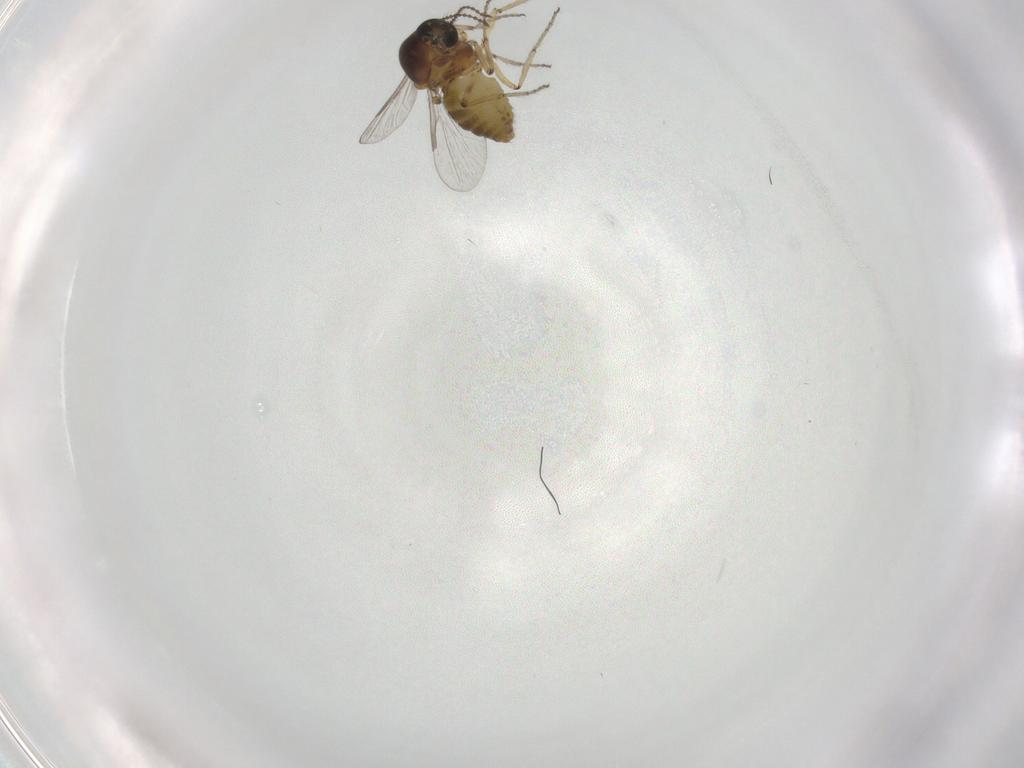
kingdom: Animalia
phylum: Arthropoda
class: Insecta
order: Diptera
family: Ceratopogonidae
